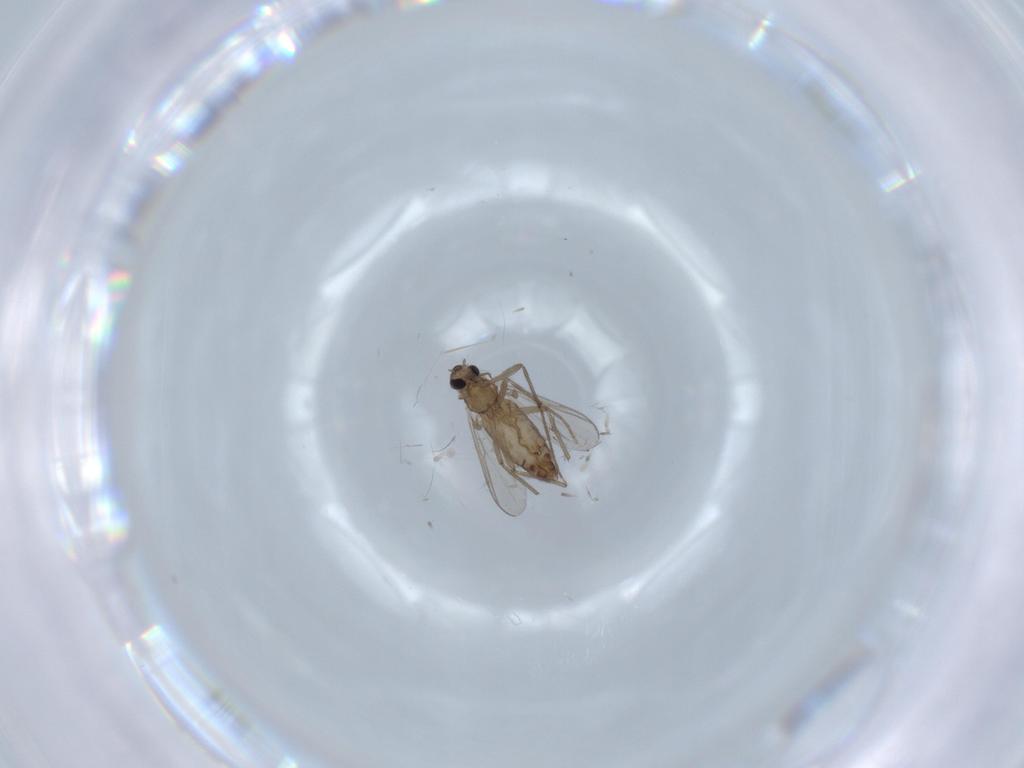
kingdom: Animalia
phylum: Arthropoda
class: Insecta
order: Diptera
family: Chironomidae
